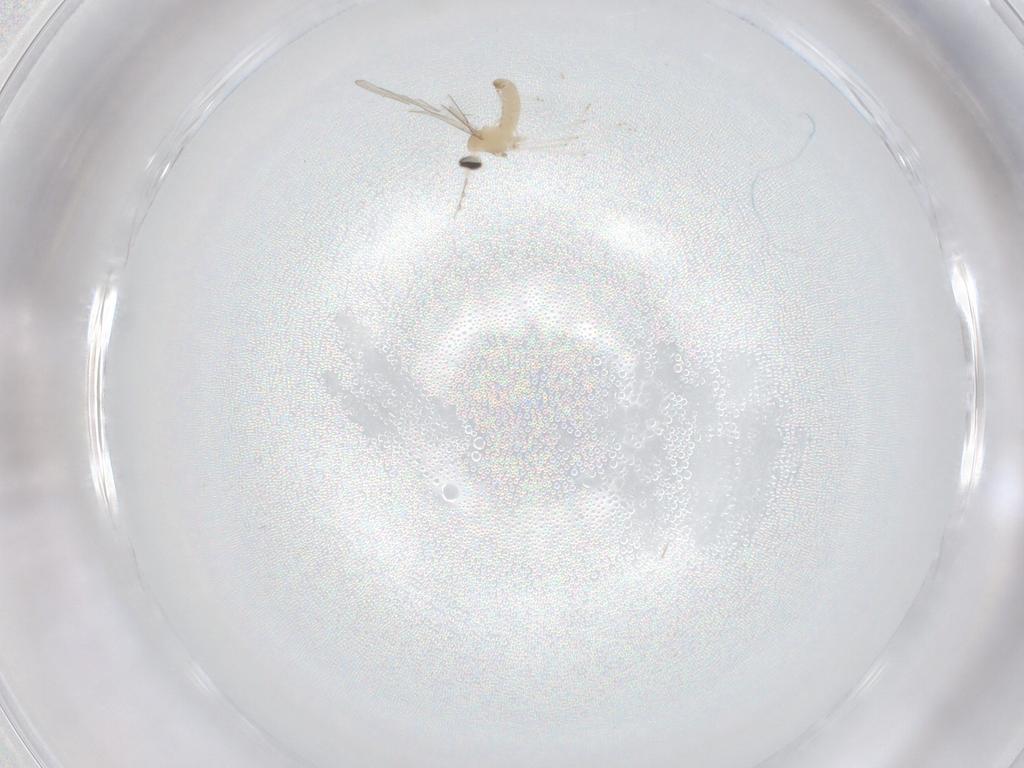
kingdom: Animalia
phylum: Arthropoda
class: Insecta
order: Diptera
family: Cecidomyiidae
